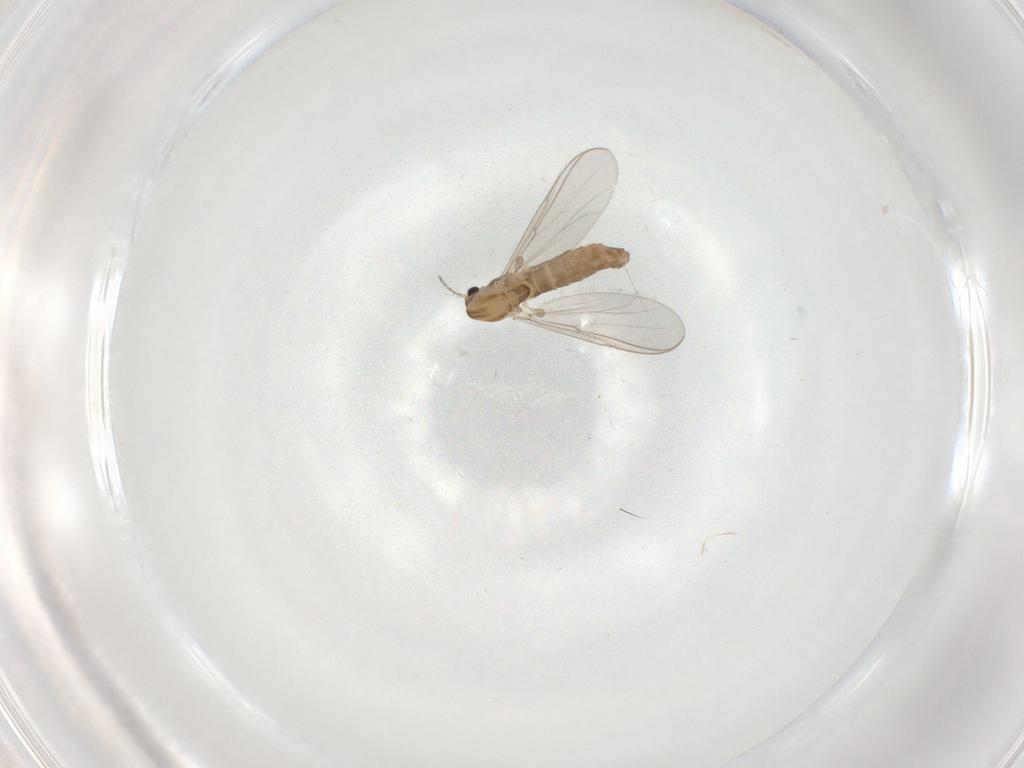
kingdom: Animalia
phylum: Arthropoda
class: Insecta
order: Diptera
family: Chironomidae
